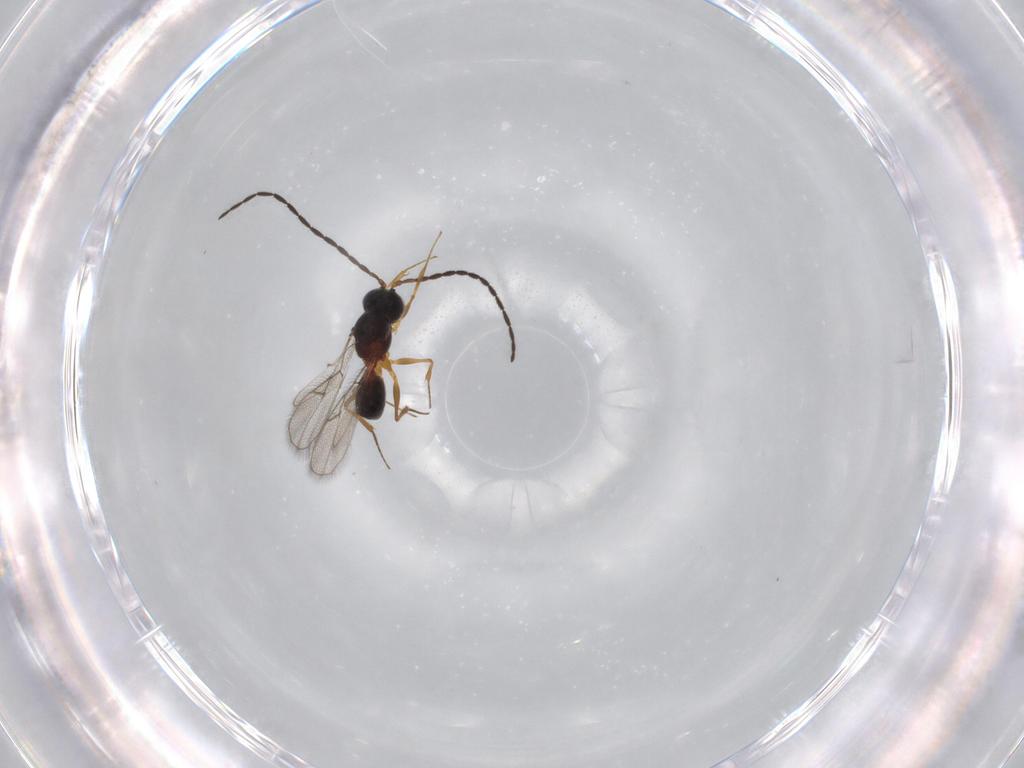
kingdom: Animalia
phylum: Arthropoda
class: Insecta
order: Hymenoptera
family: Figitidae
